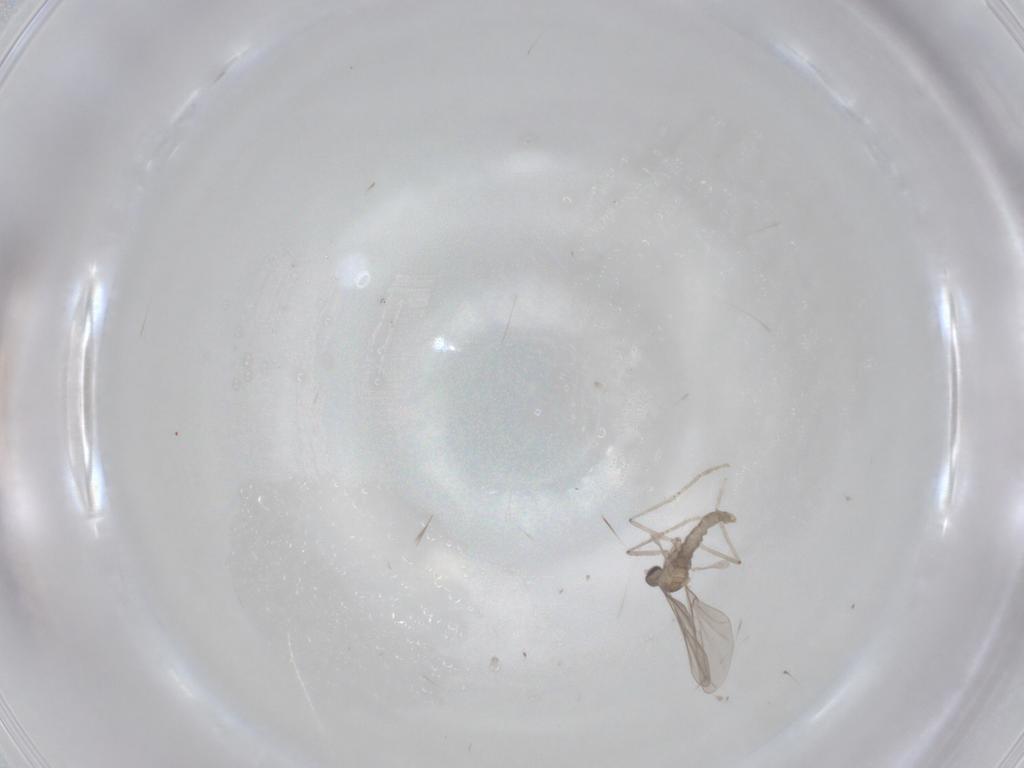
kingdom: Animalia
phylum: Arthropoda
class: Insecta
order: Diptera
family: Cecidomyiidae
